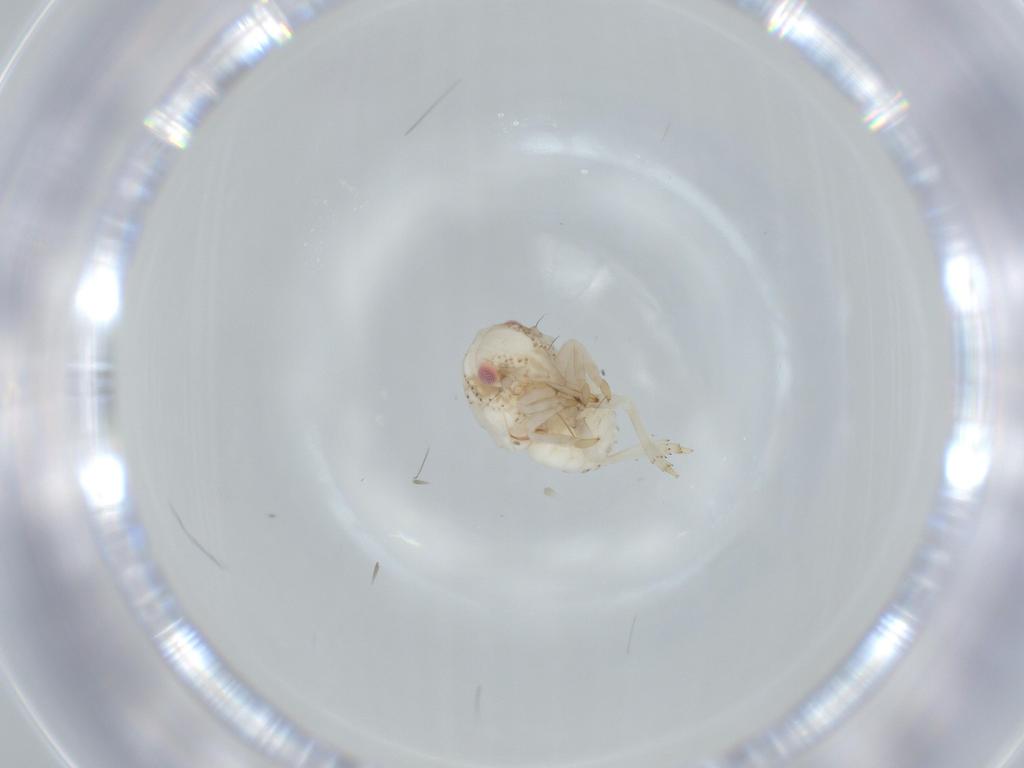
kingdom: Animalia
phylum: Arthropoda
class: Insecta
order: Hemiptera
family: Acanaloniidae
